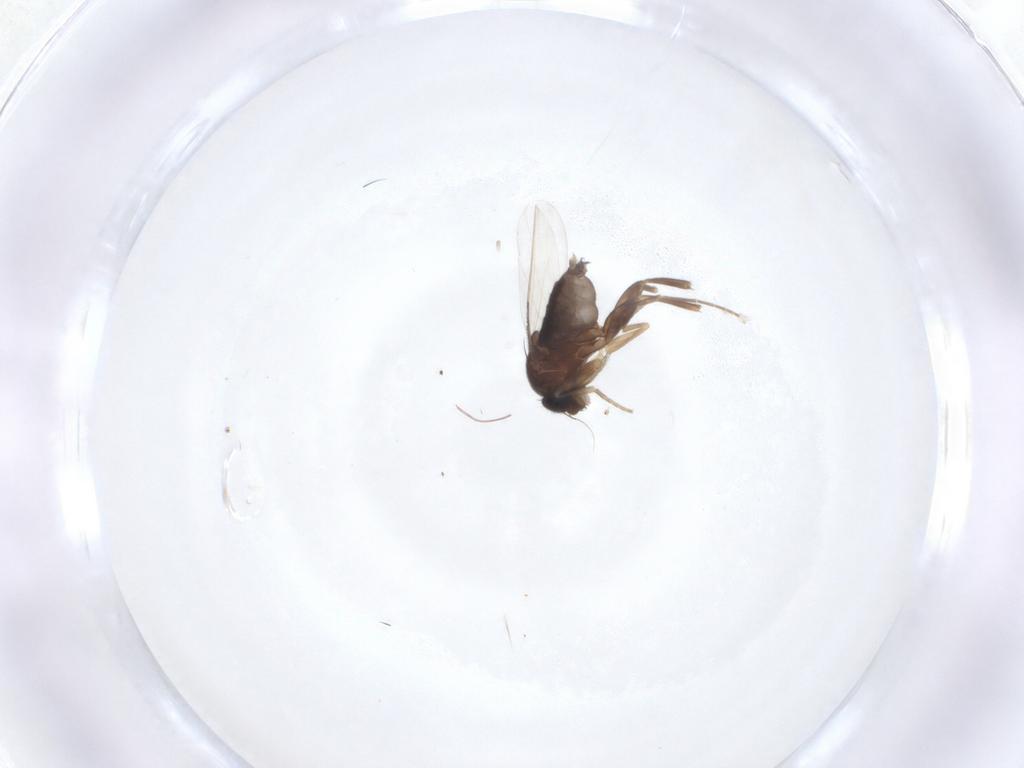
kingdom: Animalia
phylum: Arthropoda
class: Insecta
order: Diptera
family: Phoridae
